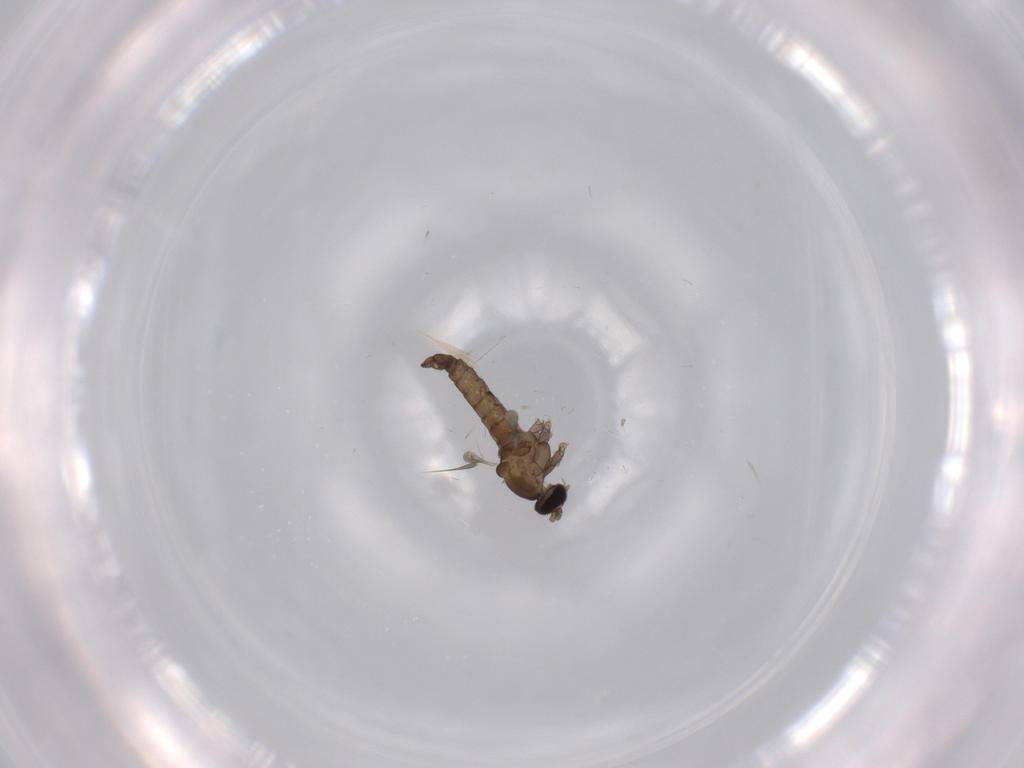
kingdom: Animalia
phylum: Arthropoda
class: Insecta
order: Diptera
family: Cecidomyiidae
